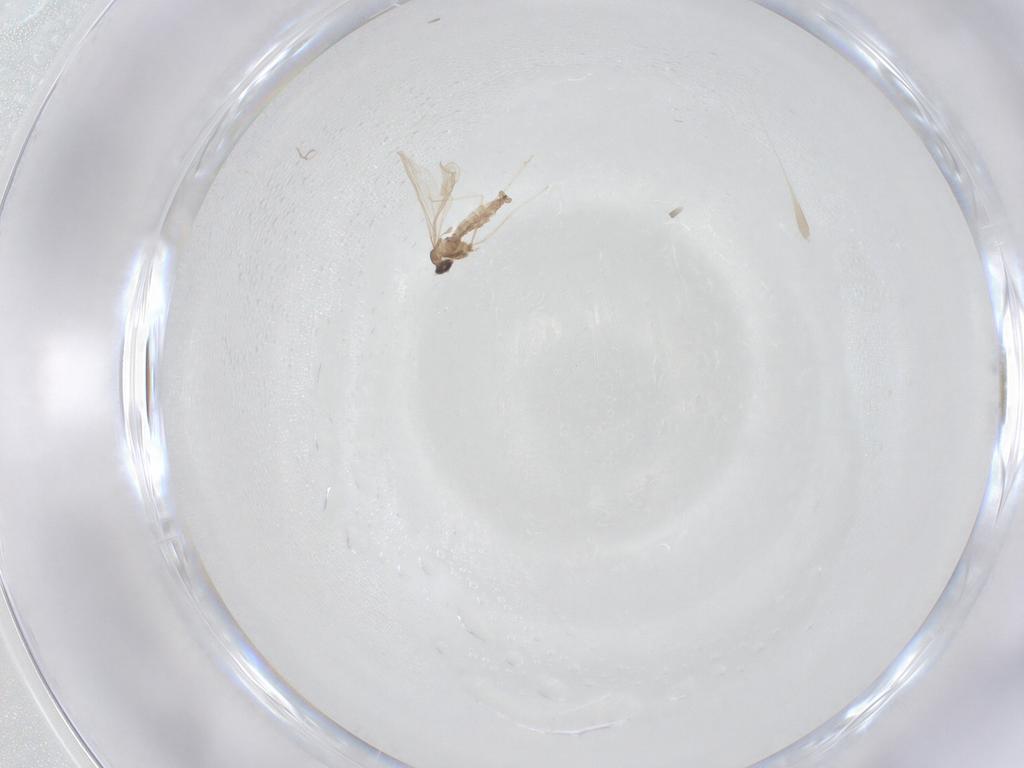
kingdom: Animalia
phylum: Arthropoda
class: Insecta
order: Diptera
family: Cecidomyiidae
